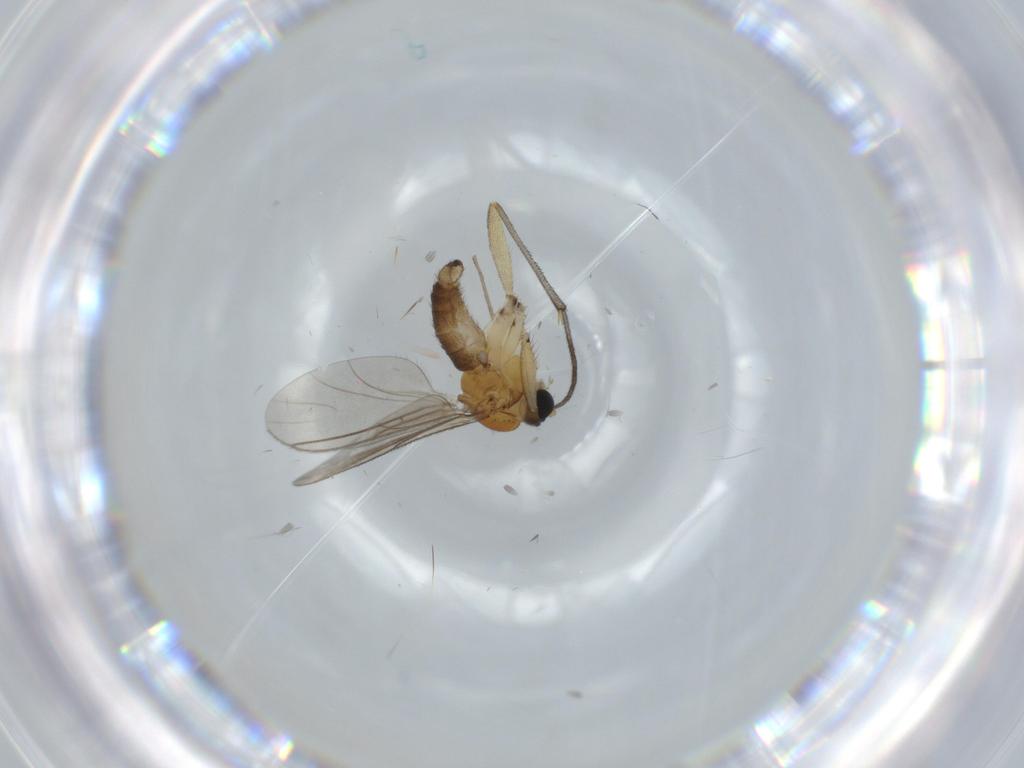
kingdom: Animalia
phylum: Arthropoda
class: Insecta
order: Diptera
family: Sciaridae
